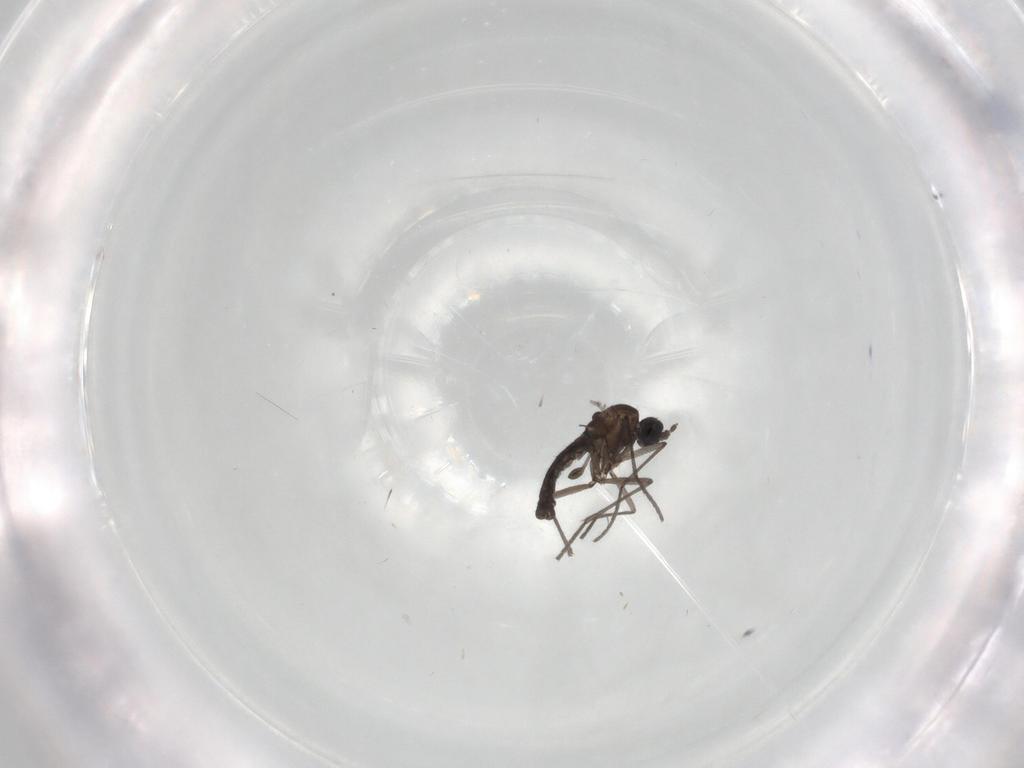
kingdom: Animalia
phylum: Arthropoda
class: Insecta
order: Diptera
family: Sciaridae
